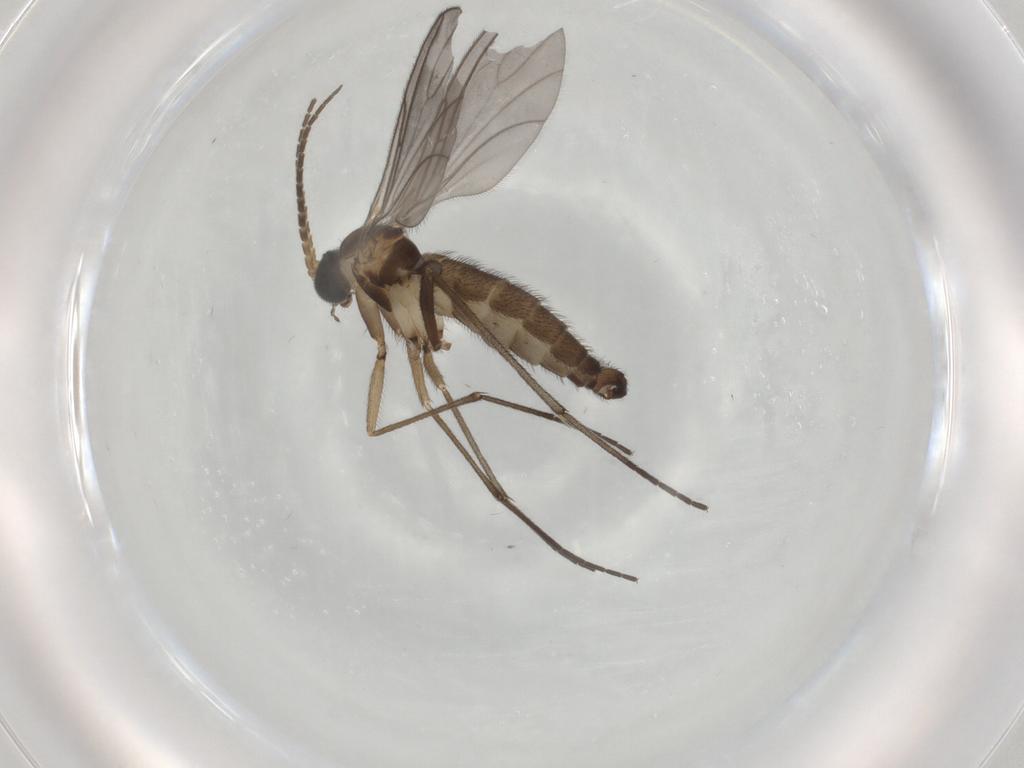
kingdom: Animalia
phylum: Arthropoda
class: Insecta
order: Diptera
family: Sciaridae
